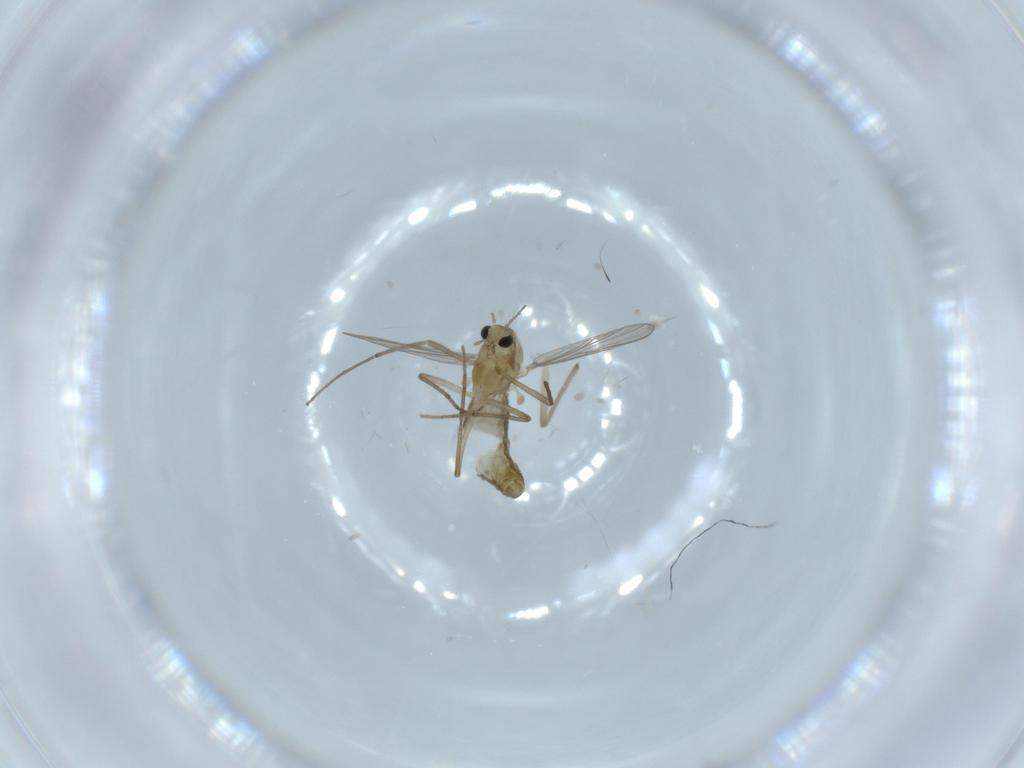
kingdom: Animalia
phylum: Arthropoda
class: Insecta
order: Diptera
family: Chironomidae
